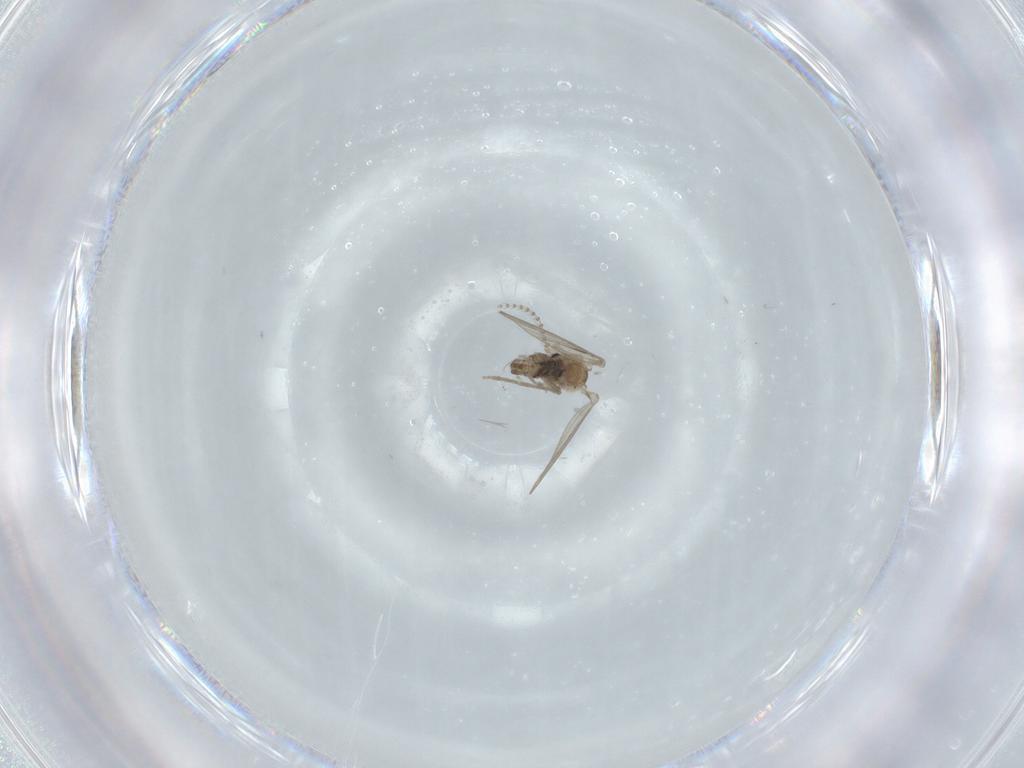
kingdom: Animalia
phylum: Arthropoda
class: Insecta
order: Diptera
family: Psychodidae
